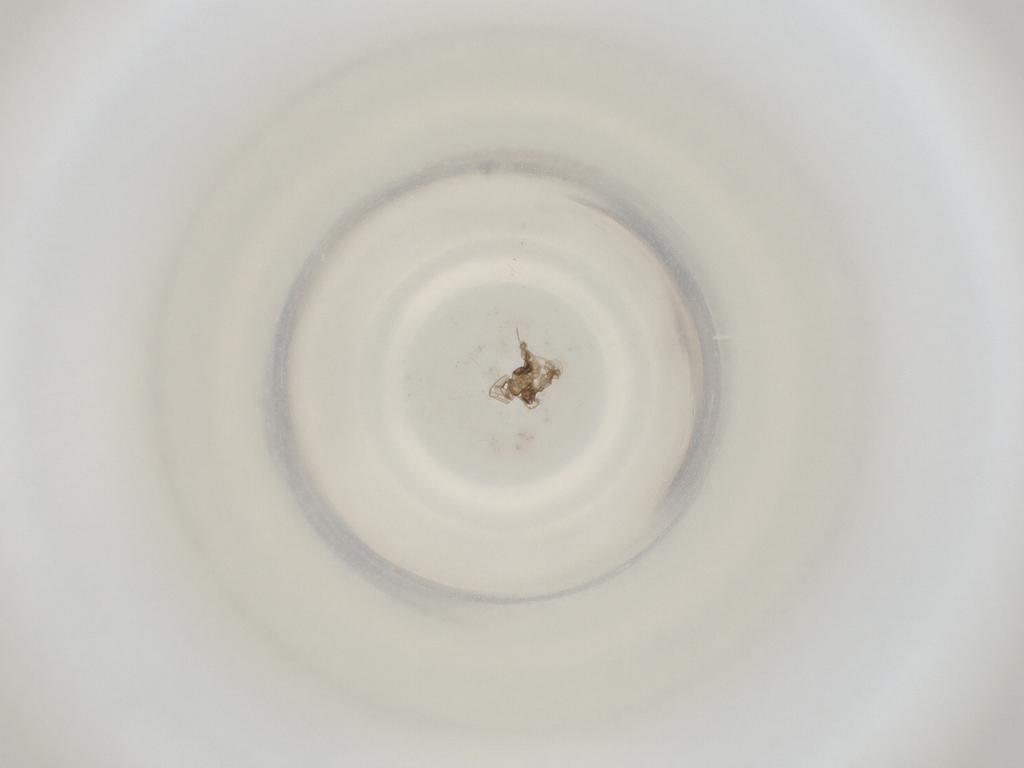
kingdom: Animalia
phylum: Arthropoda
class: Insecta
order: Diptera
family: Cecidomyiidae
